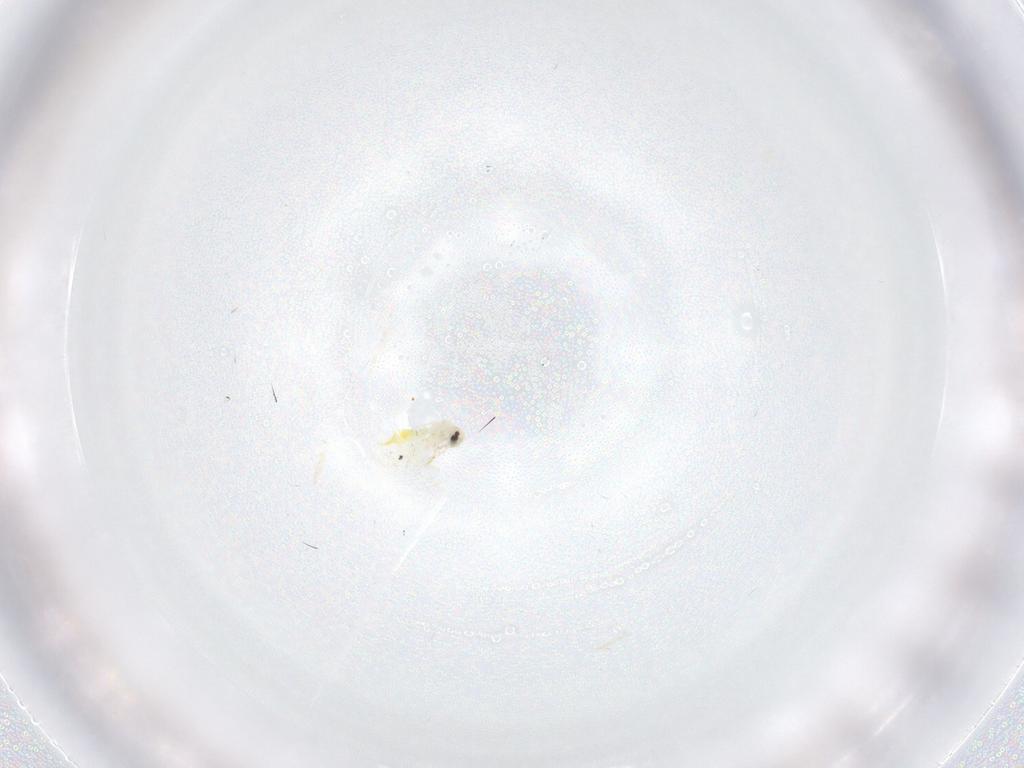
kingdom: Animalia
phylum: Arthropoda
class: Insecta
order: Hemiptera
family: Aleyrodidae
